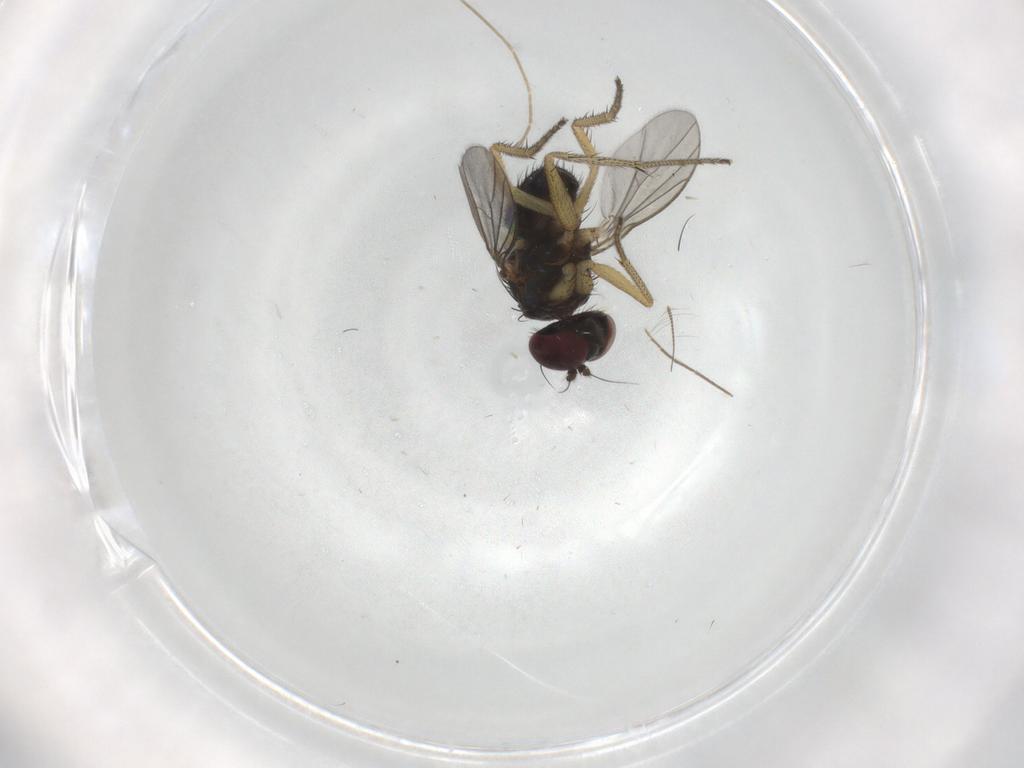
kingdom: Animalia
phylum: Arthropoda
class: Insecta
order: Diptera
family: Chironomidae
